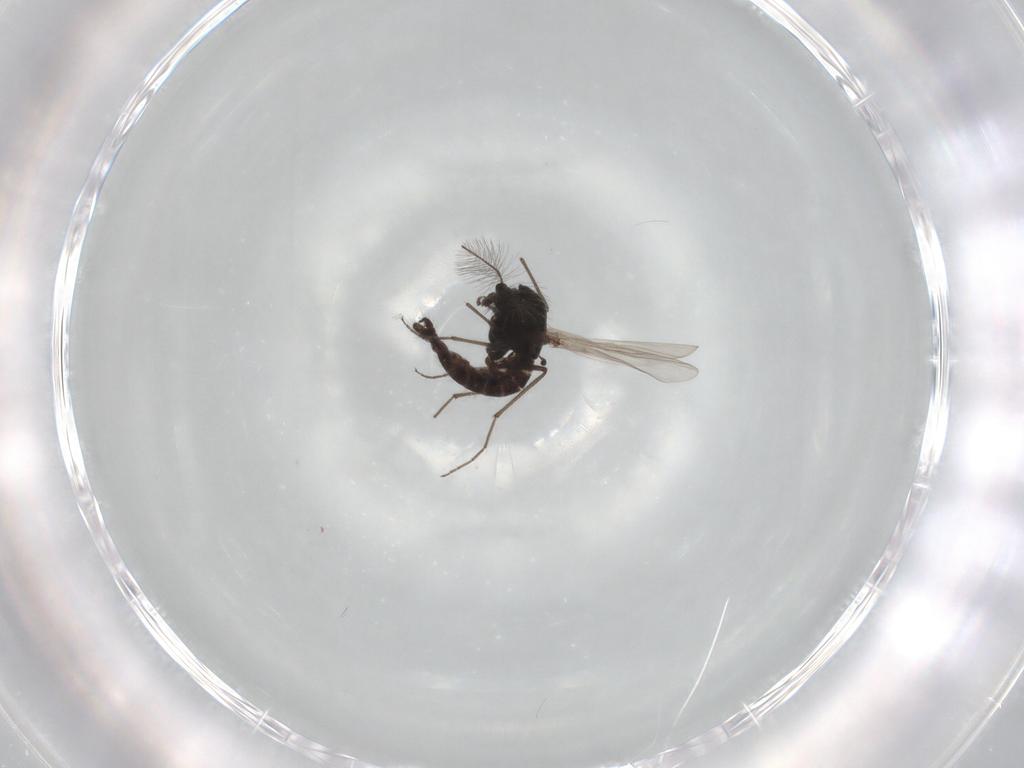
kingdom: Animalia
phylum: Arthropoda
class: Insecta
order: Diptera
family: Chironomidae
